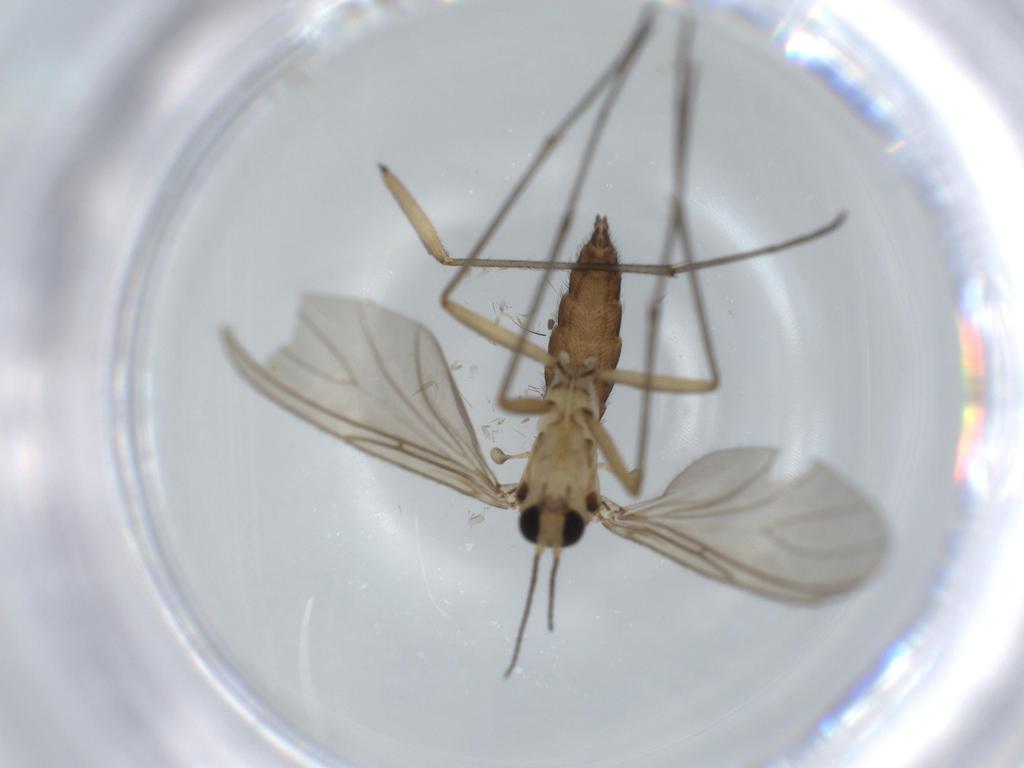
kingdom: Animalia
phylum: Arthropoda
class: Insecta
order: Diptera
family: Sciaridae
